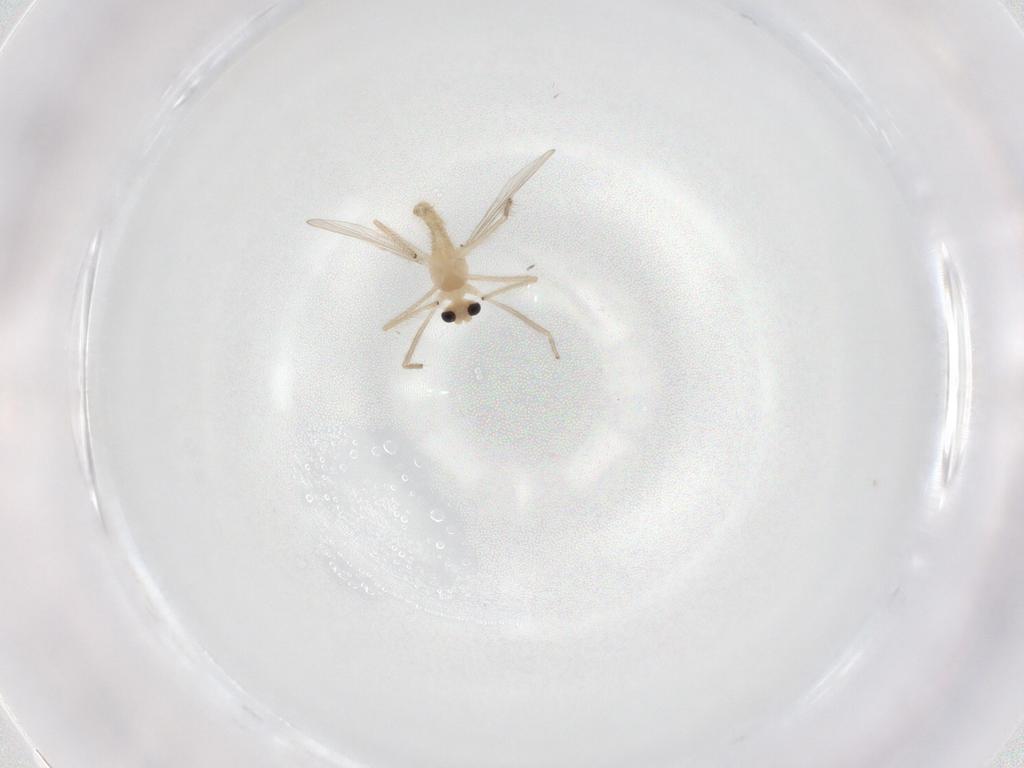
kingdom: Animalia
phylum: Arthropoda
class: Insecta
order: Diptera
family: Chironomidae
